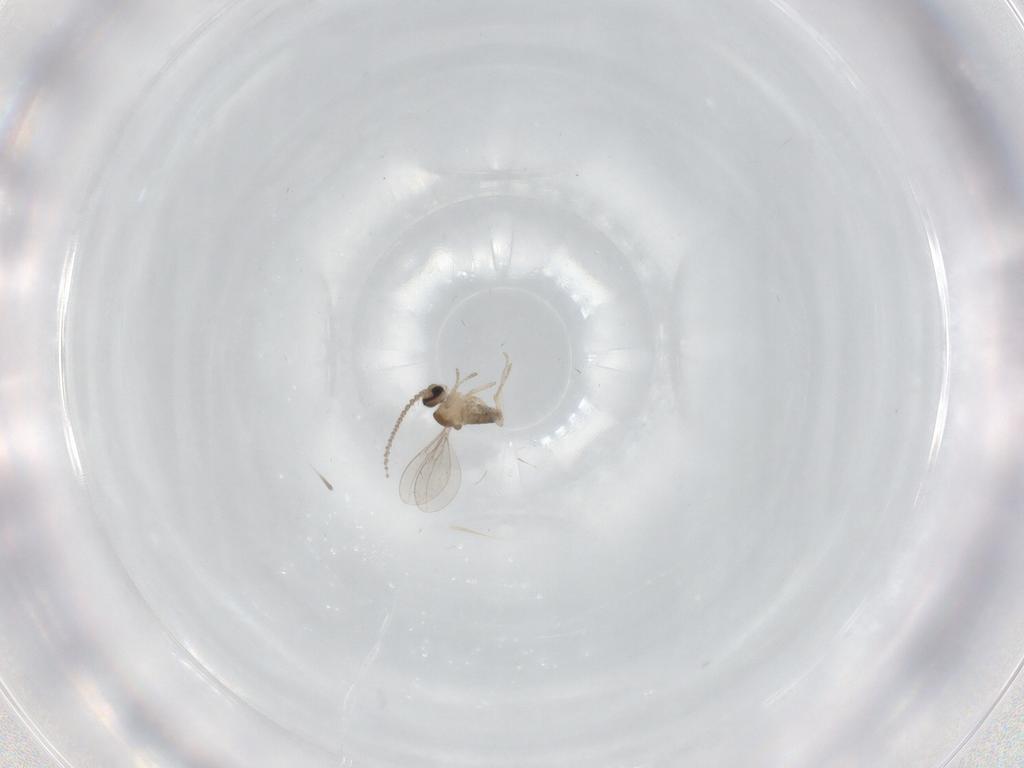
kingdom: Animalia
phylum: Arthropoda
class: Insecta
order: Diptera
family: Cecidomyiidae
